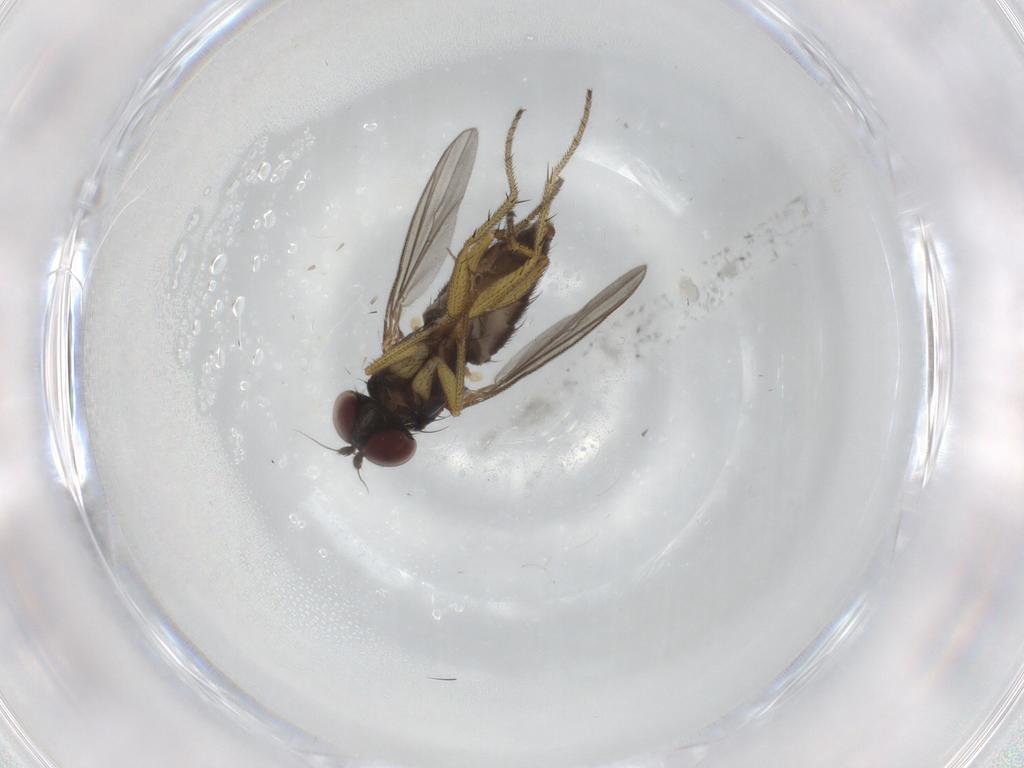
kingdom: Animalia
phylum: Arthropoda
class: Insecta
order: Diptera
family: Dolichopodidae
